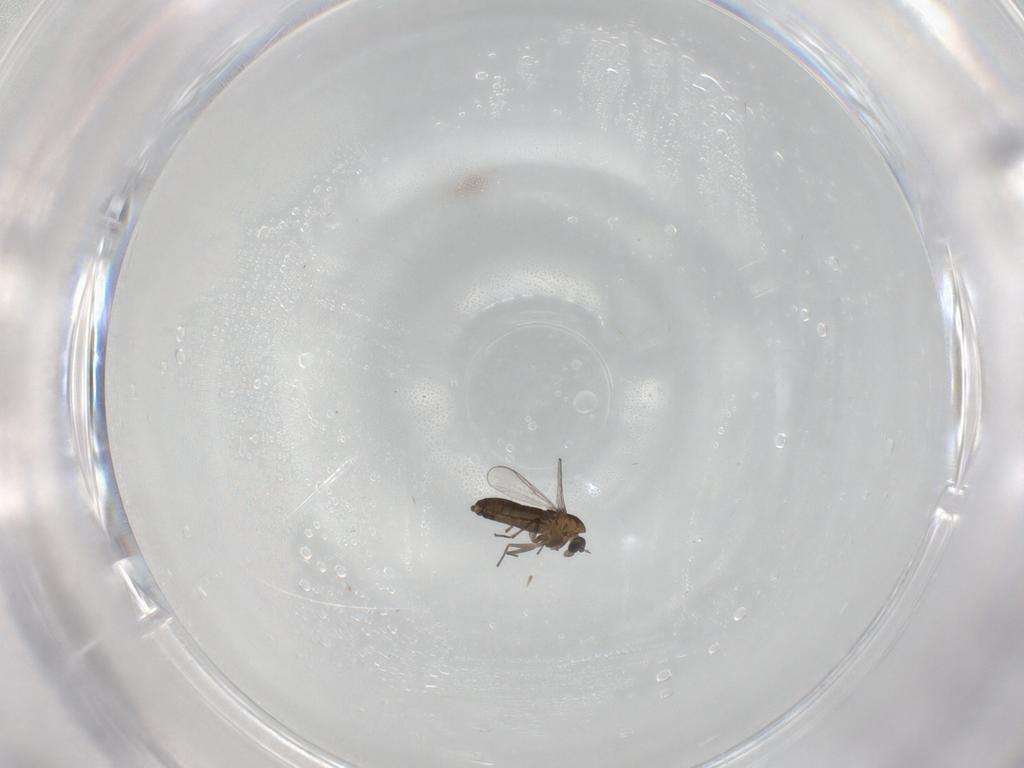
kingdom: Animalia
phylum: Arthropoda
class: Insecta
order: Diptera
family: Chironomidae
